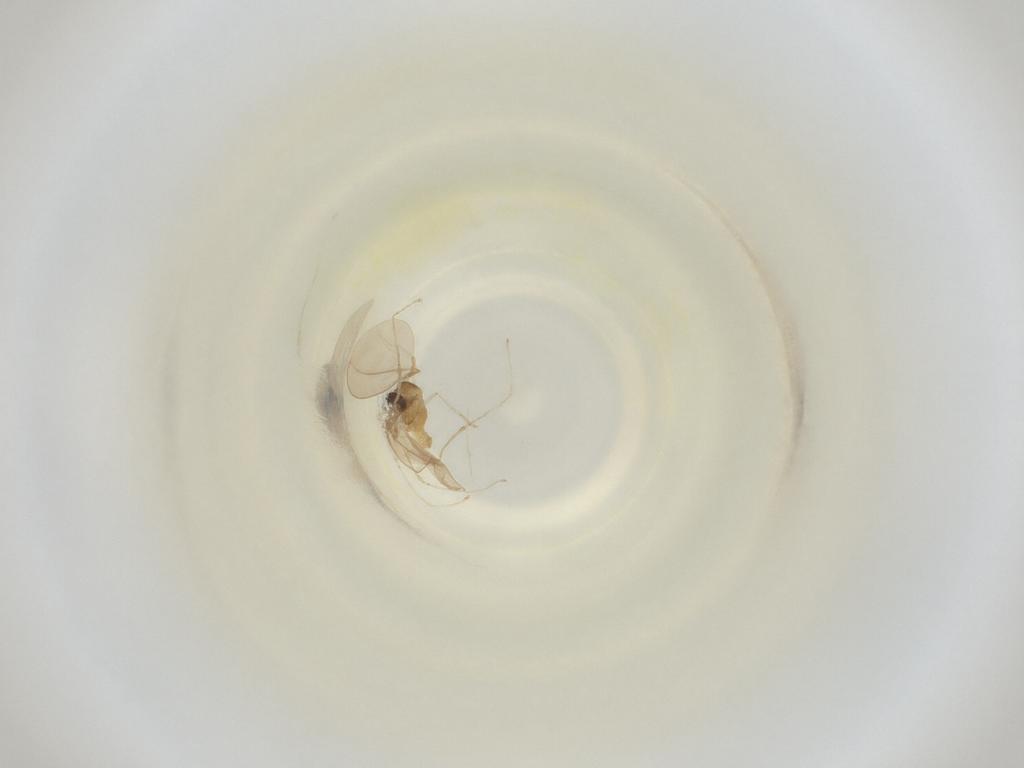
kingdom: Animalia
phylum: Arthropoda
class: Insecta
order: Diptera
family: Cecidomyiidae
